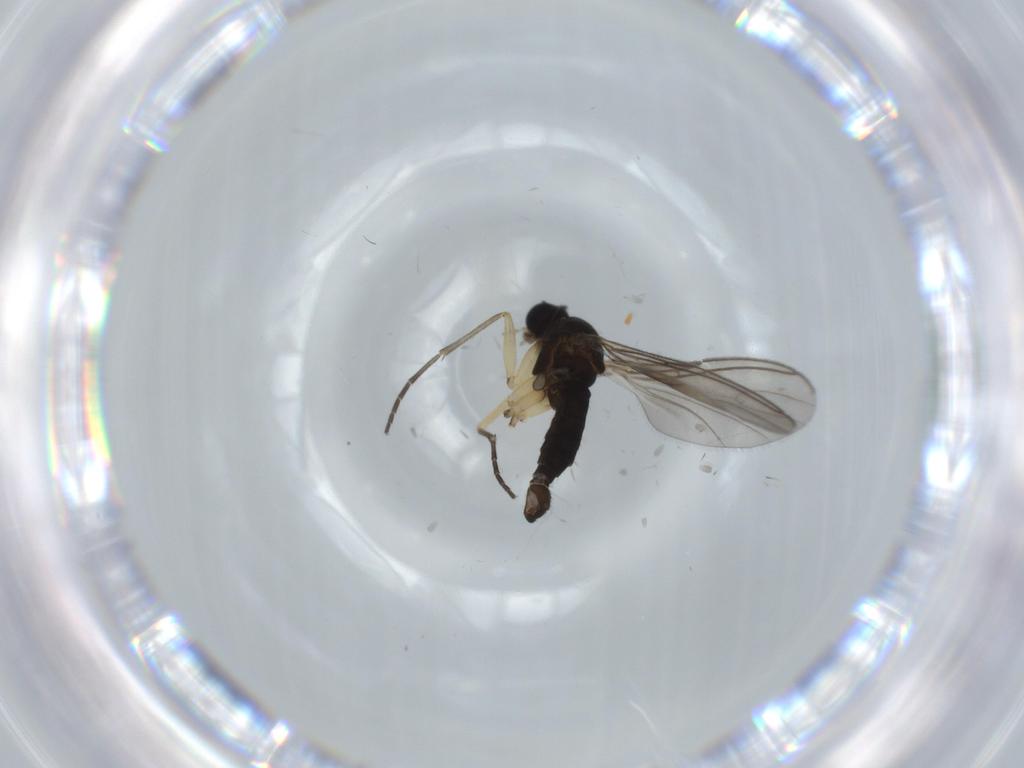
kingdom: Animalia
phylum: Arthropoda
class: Insecta
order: Diptera
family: Sciaridae
